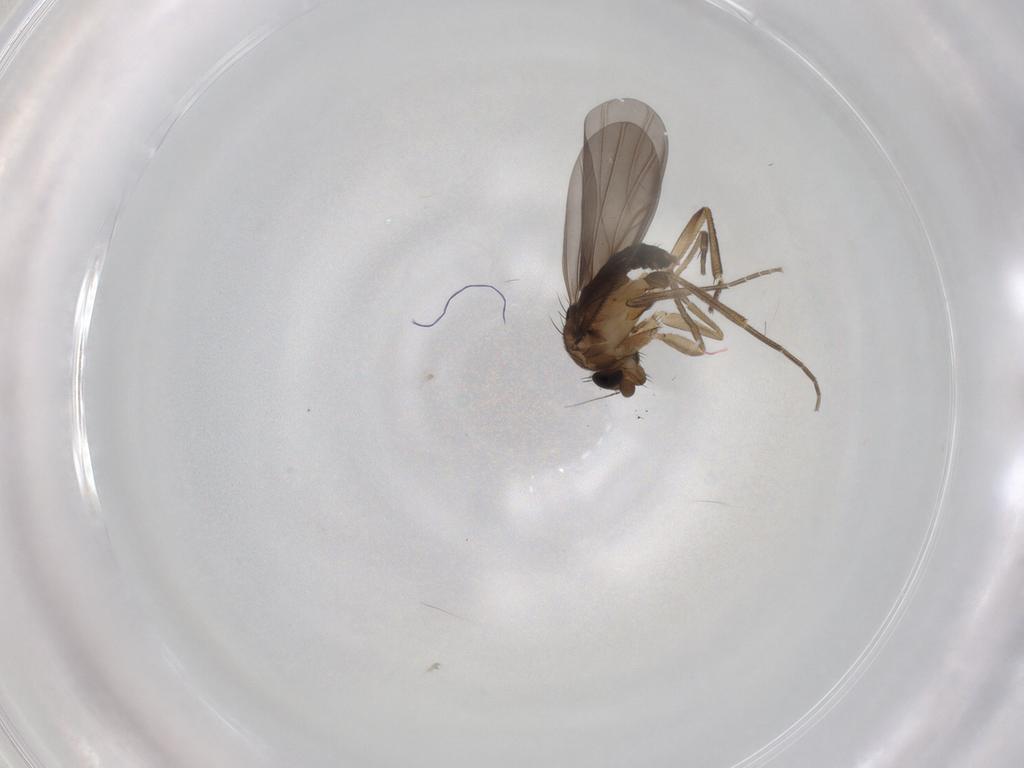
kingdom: Animalia
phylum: Arthropoda
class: Insecta
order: Diptera
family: Phoridae
